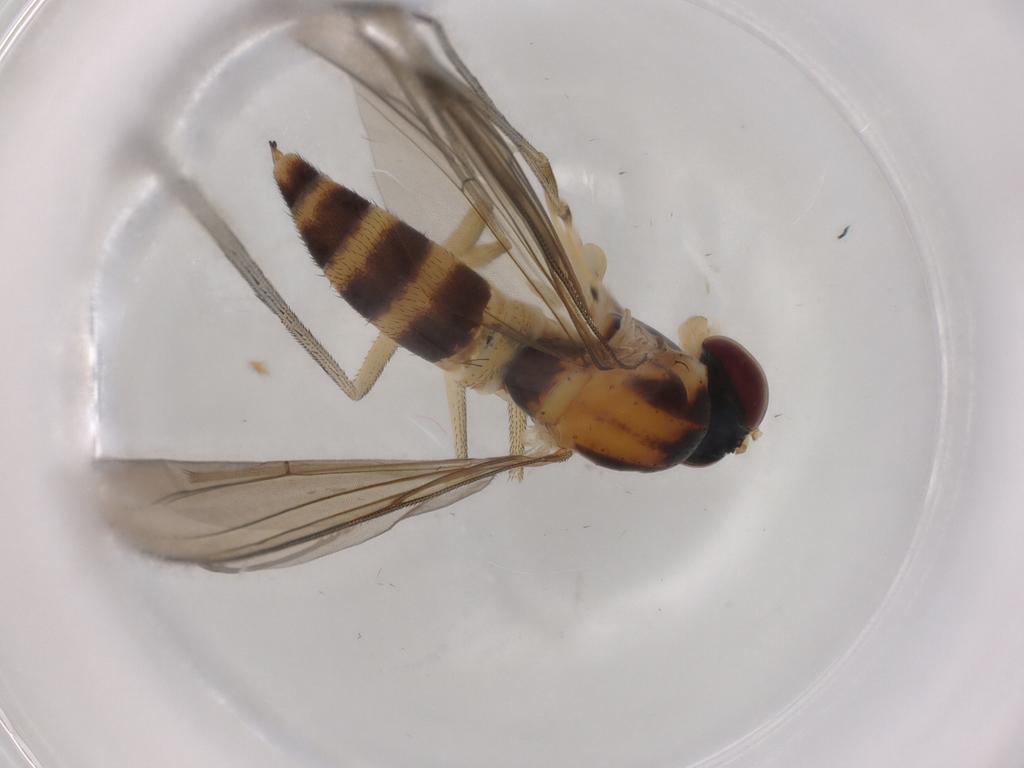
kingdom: Animalia
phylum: Arthropoda
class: Insecta
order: Diptera
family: Limoniidae
